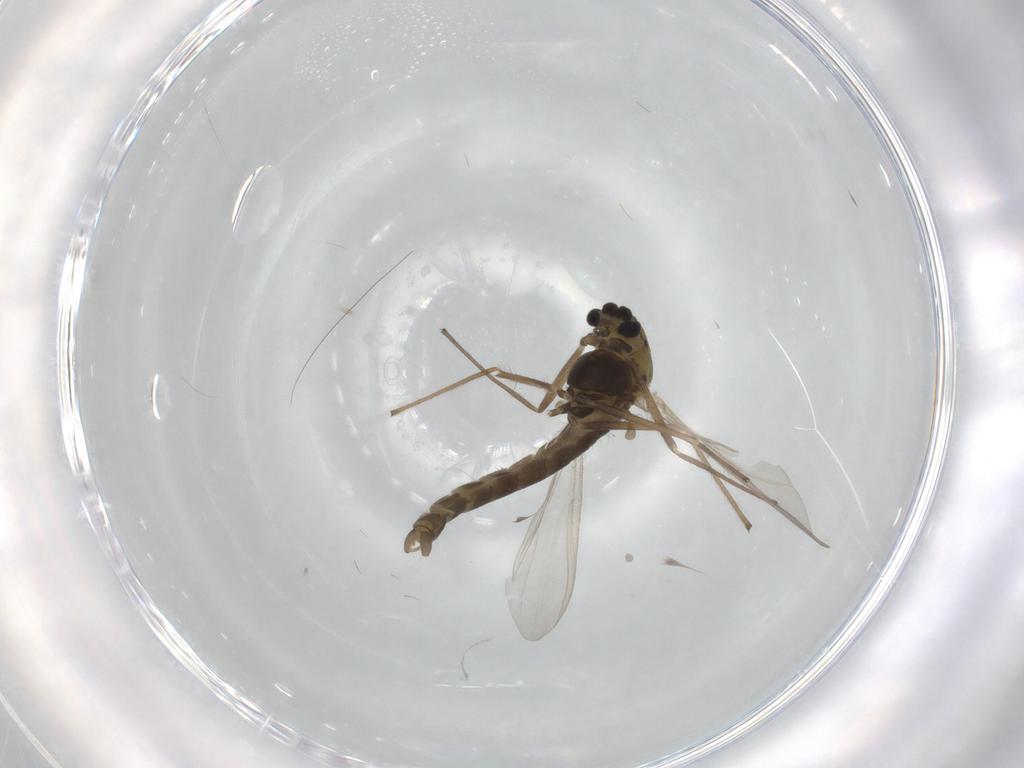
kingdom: Animalia
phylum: Arthropoda
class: Insecta
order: Diptera
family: Chironomidae
